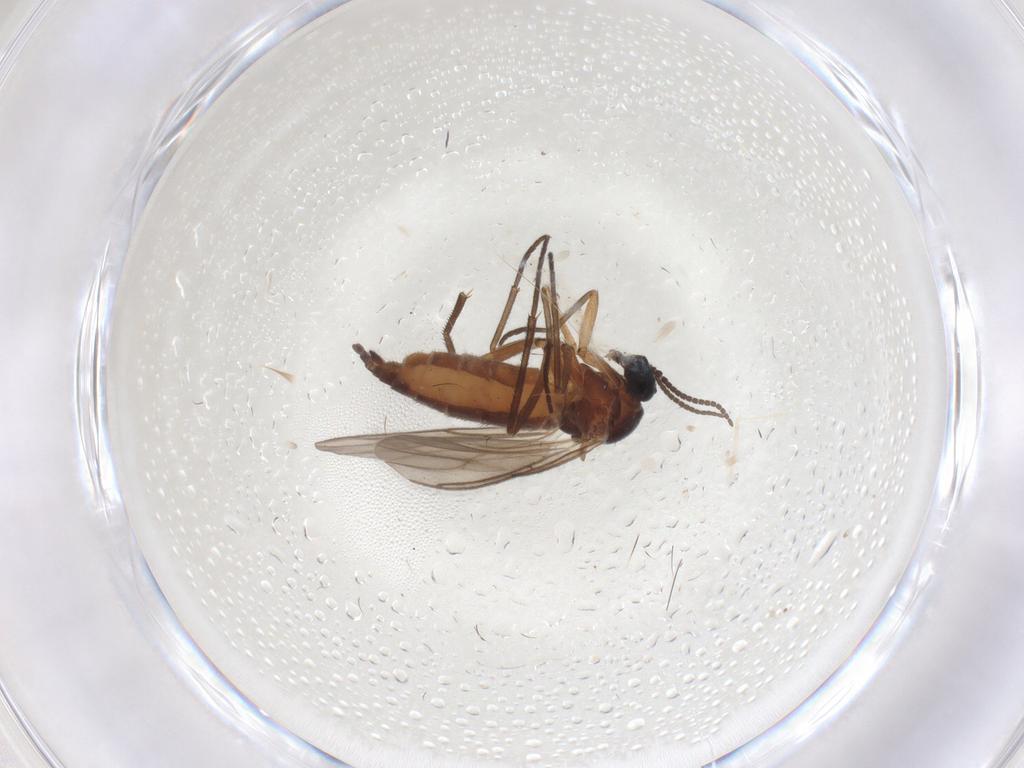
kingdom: Animalia
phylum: Arthropoda
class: Insecta
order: Diptera
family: Sciaridae
